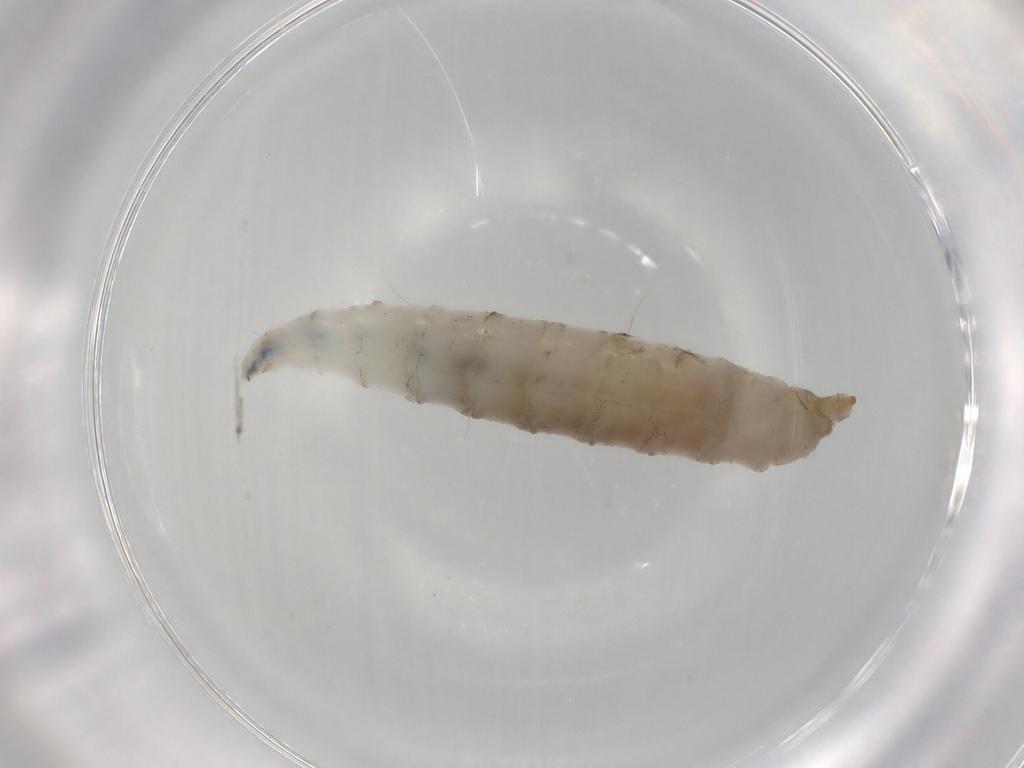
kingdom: Animalia
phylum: Arthropoda
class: Insecta
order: Diptera
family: Drosophilidae
